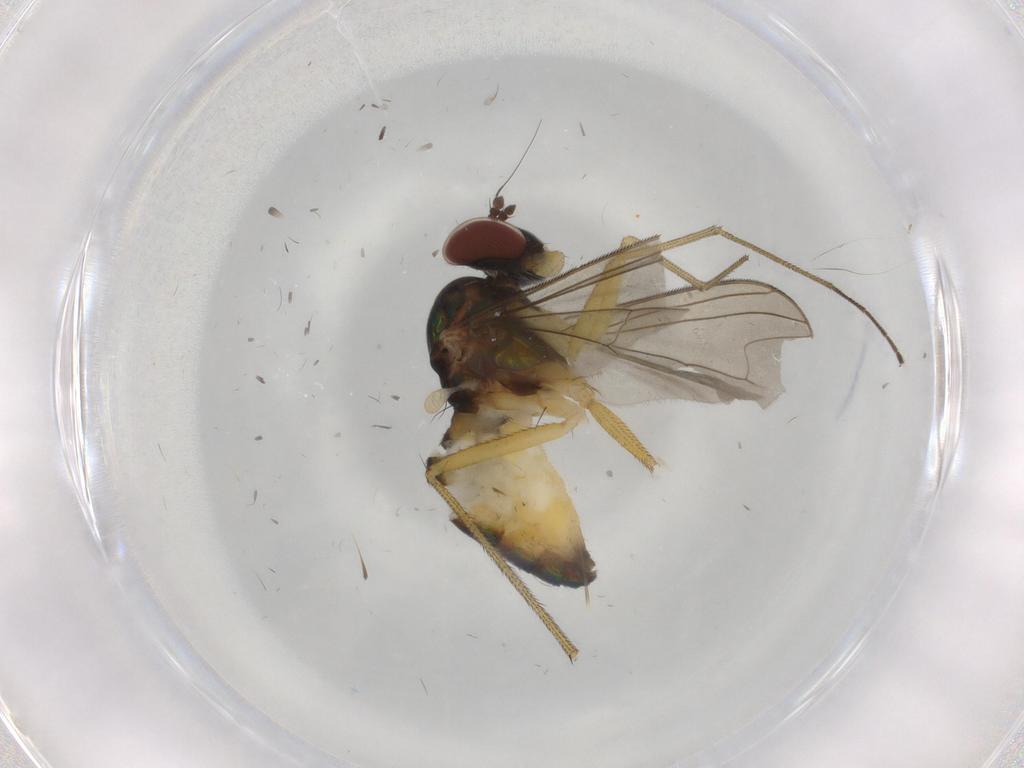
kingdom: Animalia
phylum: Arthropoda
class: Insecta
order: Diptera
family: Dolichopodidae
